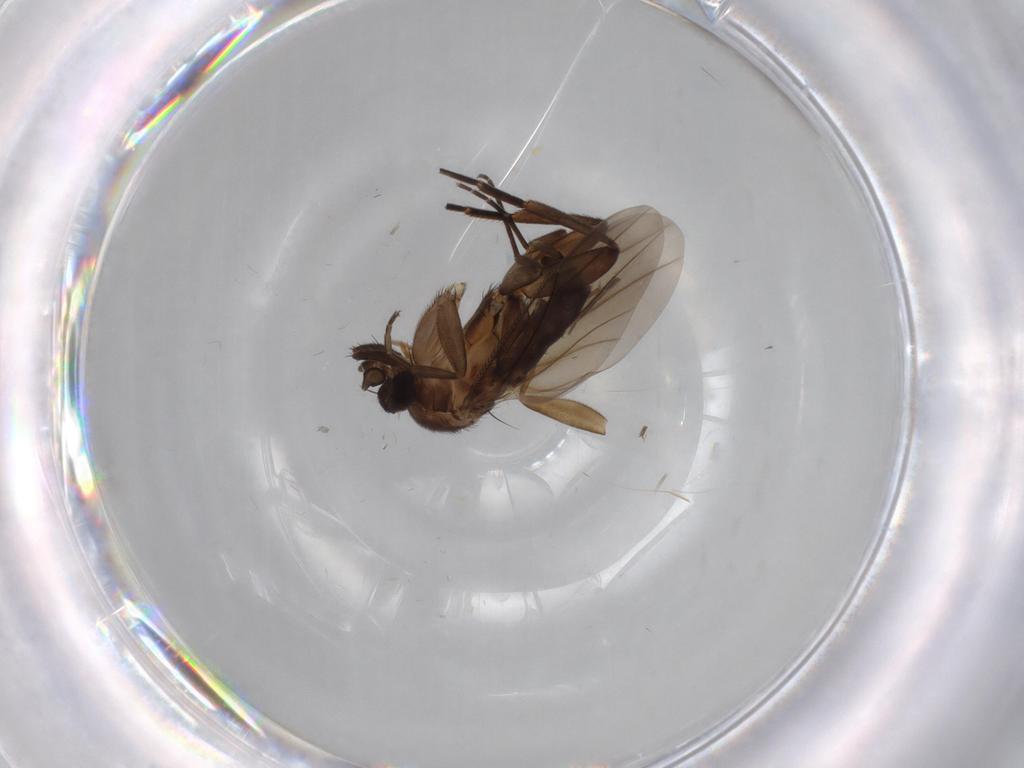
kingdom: Animalia
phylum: Arthropoda
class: Insecta
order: Diptera
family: Phoridae
